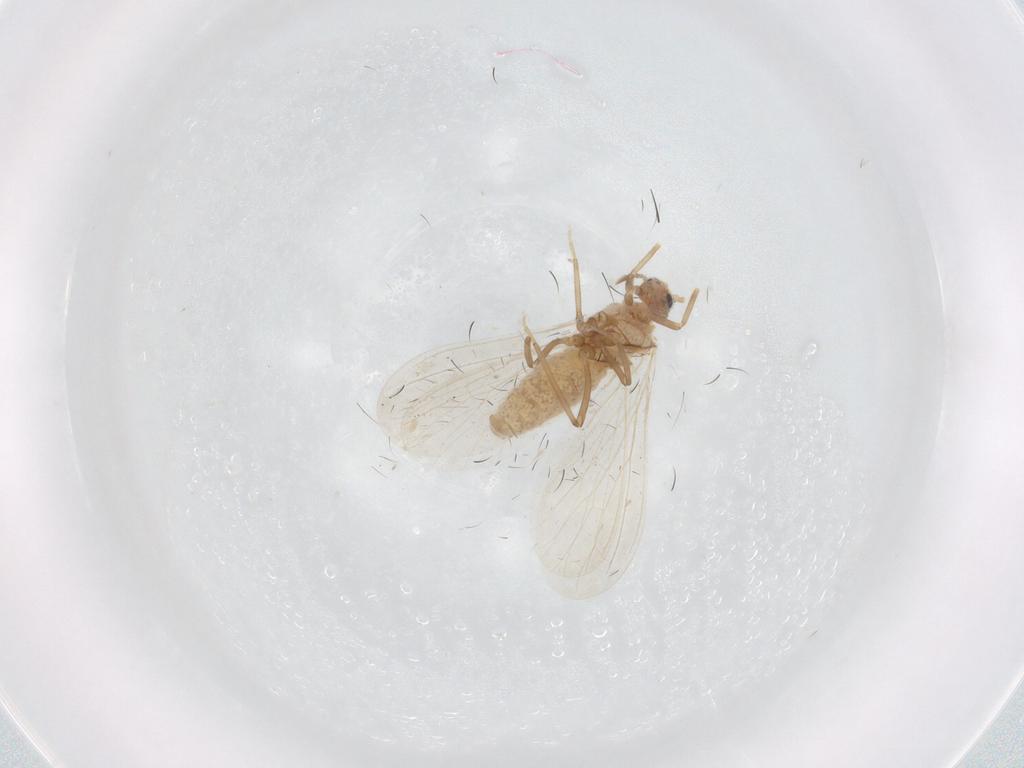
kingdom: Animalia
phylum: Arthropoda
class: Insecta
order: Neuroptera
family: Coniopterygidae
